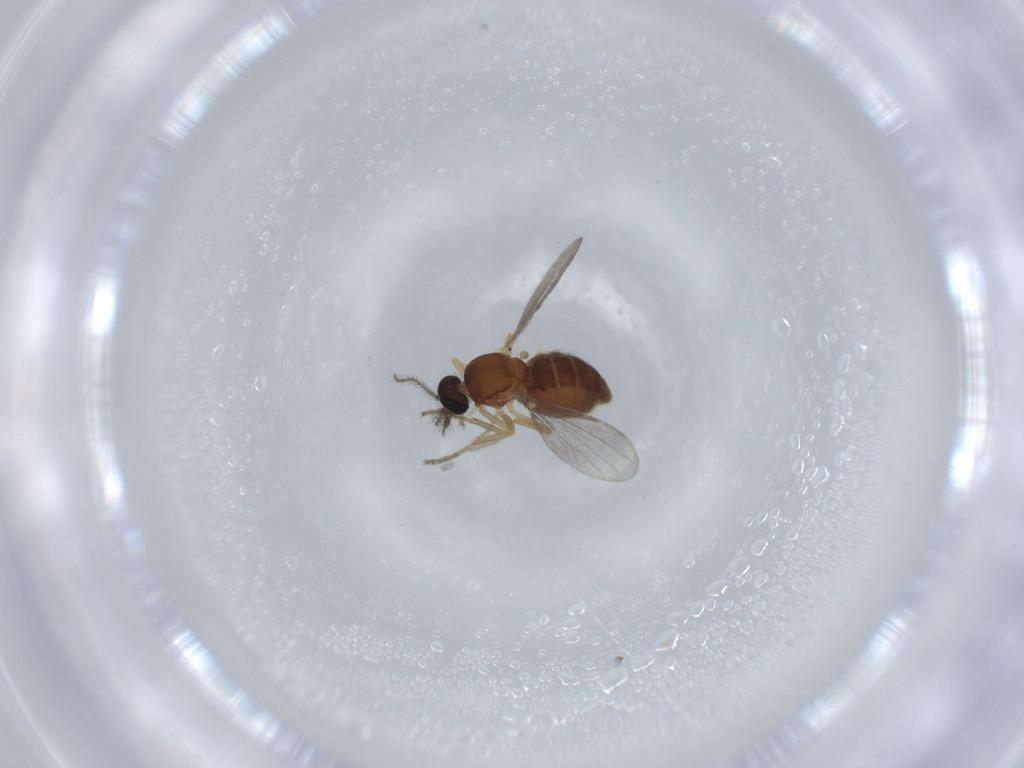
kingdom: Animalia
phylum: Arthropoda
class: Insecta
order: Diptera
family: Ceratopogonidae
